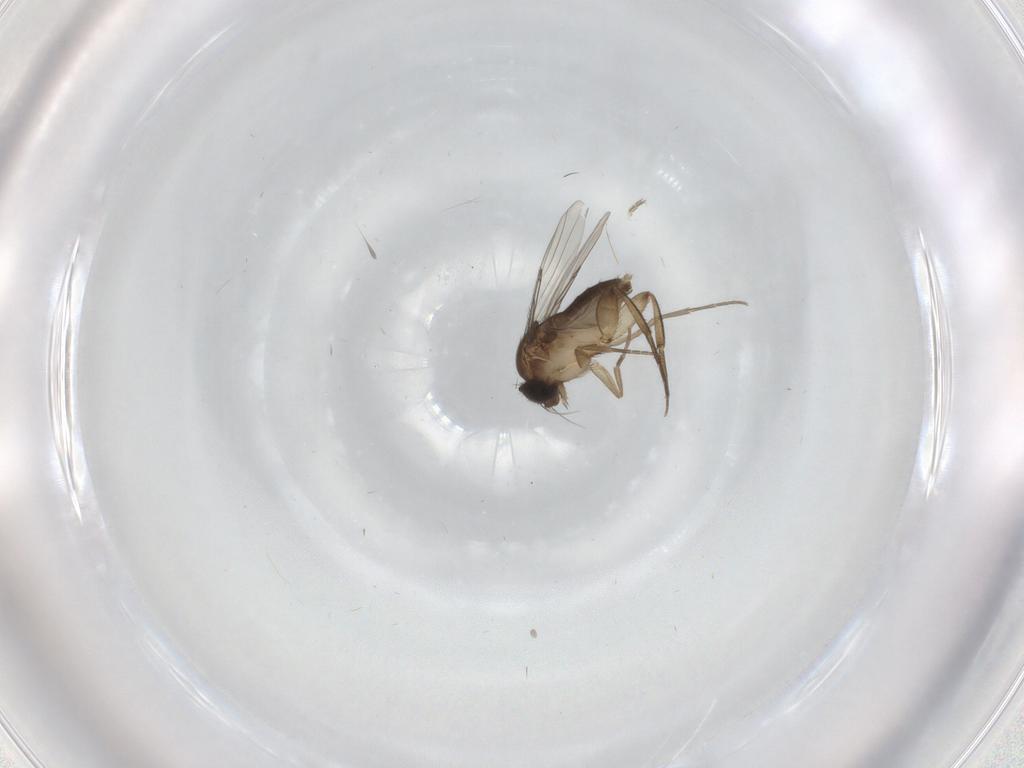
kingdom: Animalia
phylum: Arthropoda
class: Insecta
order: Diptera
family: Phoridae
